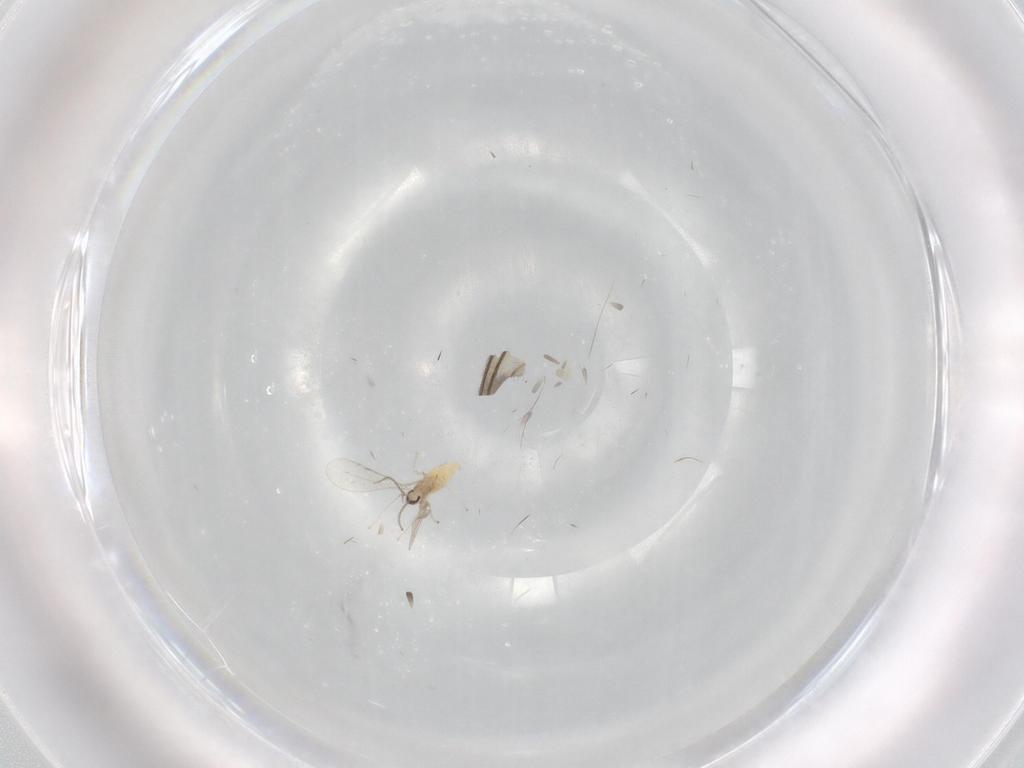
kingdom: Animalia
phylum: Arthropoda
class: Insecta
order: Diptera
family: Sciaridae
